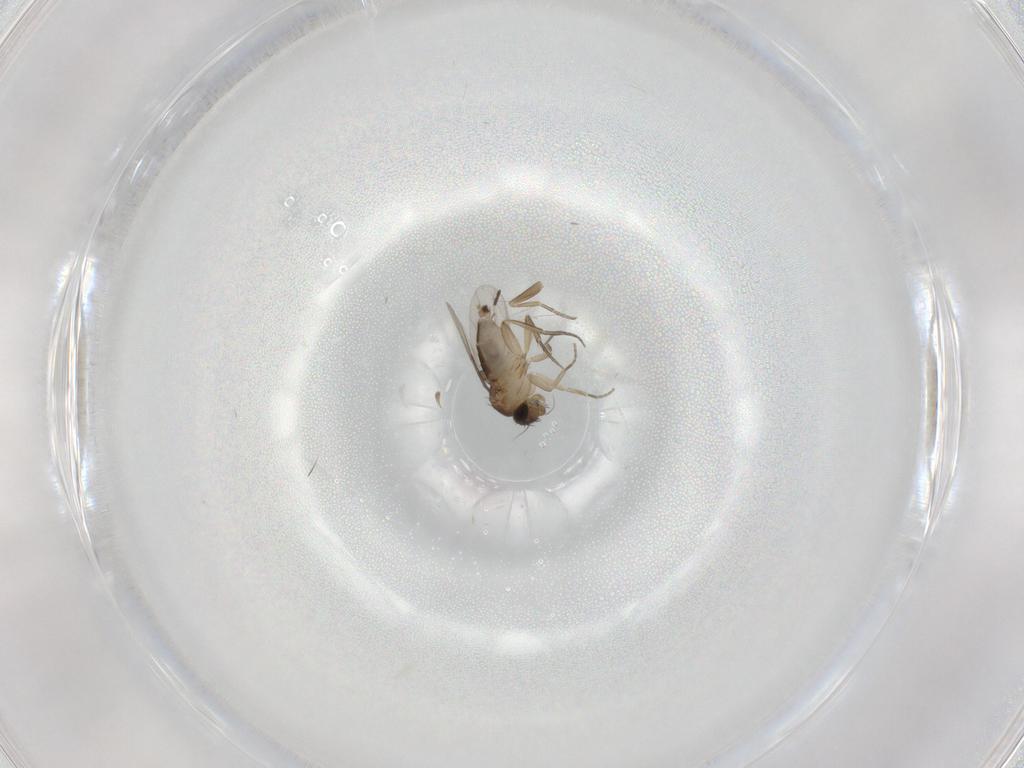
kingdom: Animalia
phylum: Arthropoda
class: Insecta
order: Diptera
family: Phoridae
